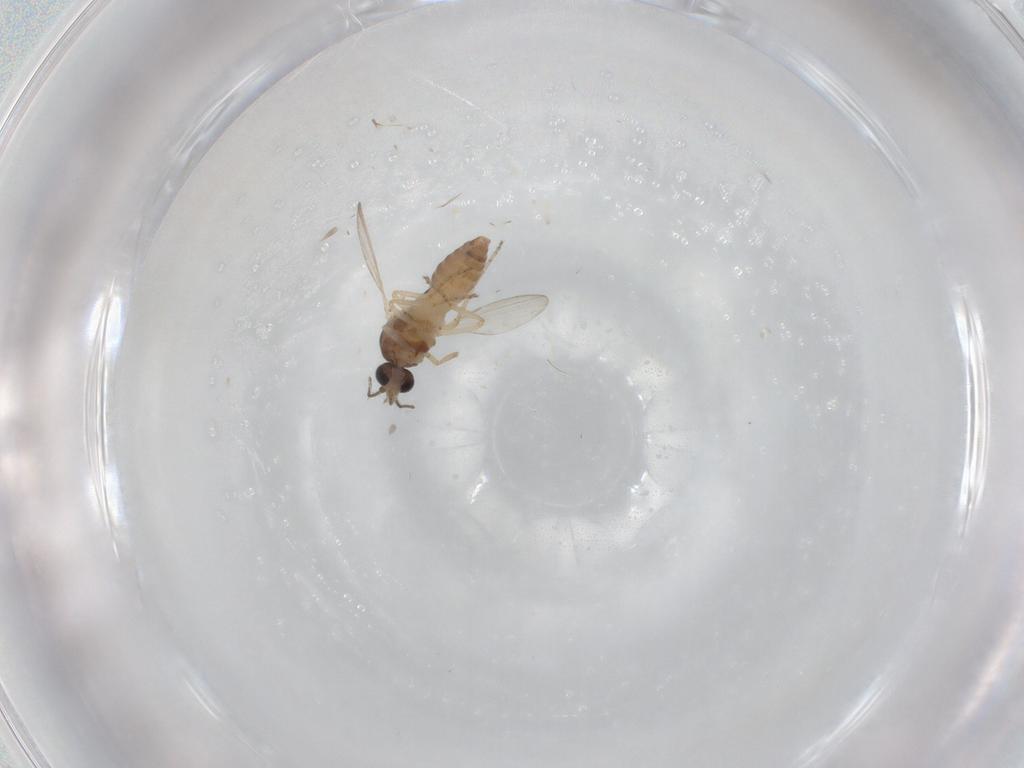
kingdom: Animalia
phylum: Arthropoda
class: Insecta
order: Diptera
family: Ceratopogonidae
